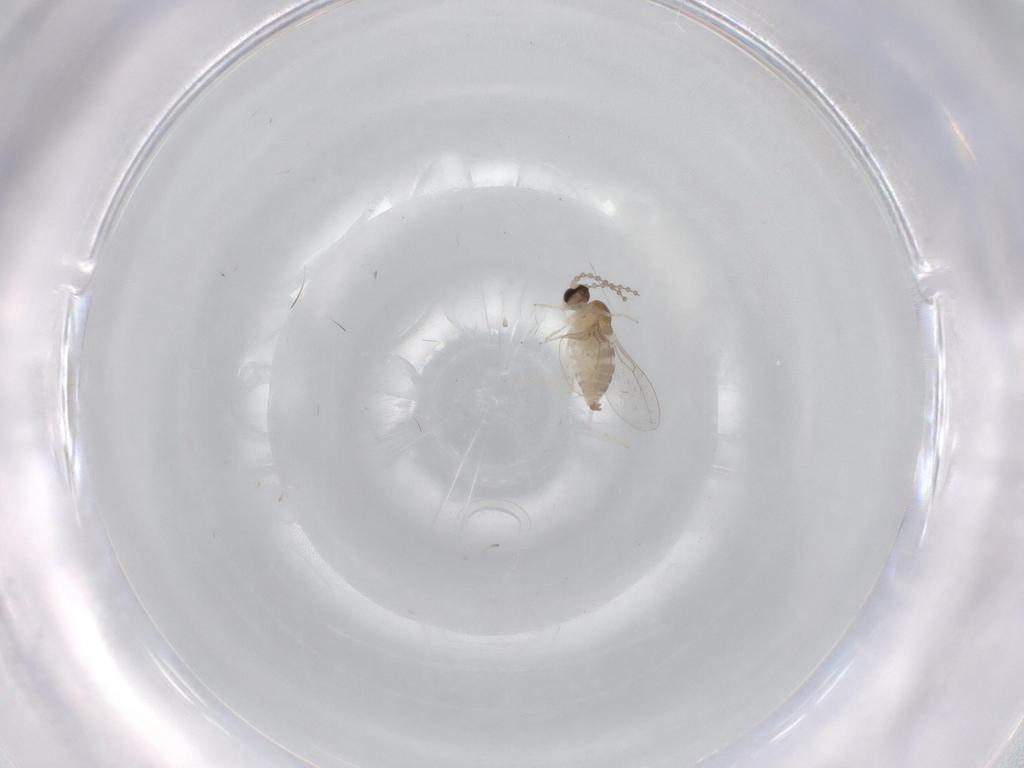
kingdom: Animalia
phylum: Arthropoda
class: Insecta
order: Diptera
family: Cecidomyiidae
